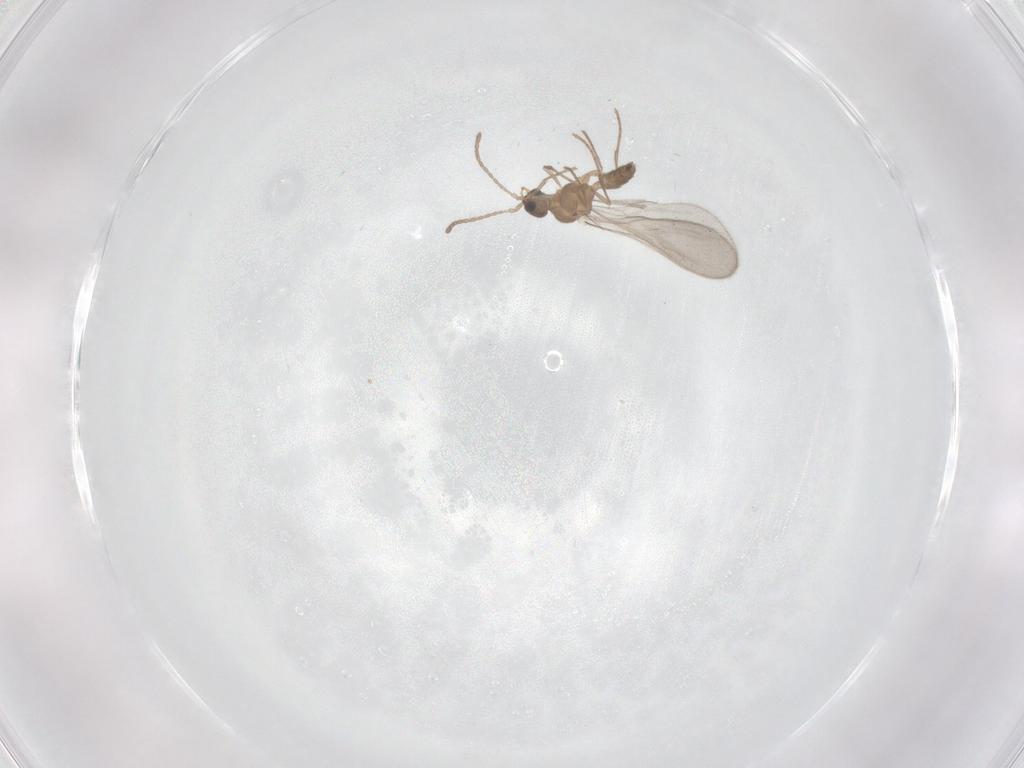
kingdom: Animalia
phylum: Arthropoda
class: Insecta
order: Hymenoptera
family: Formicidae
